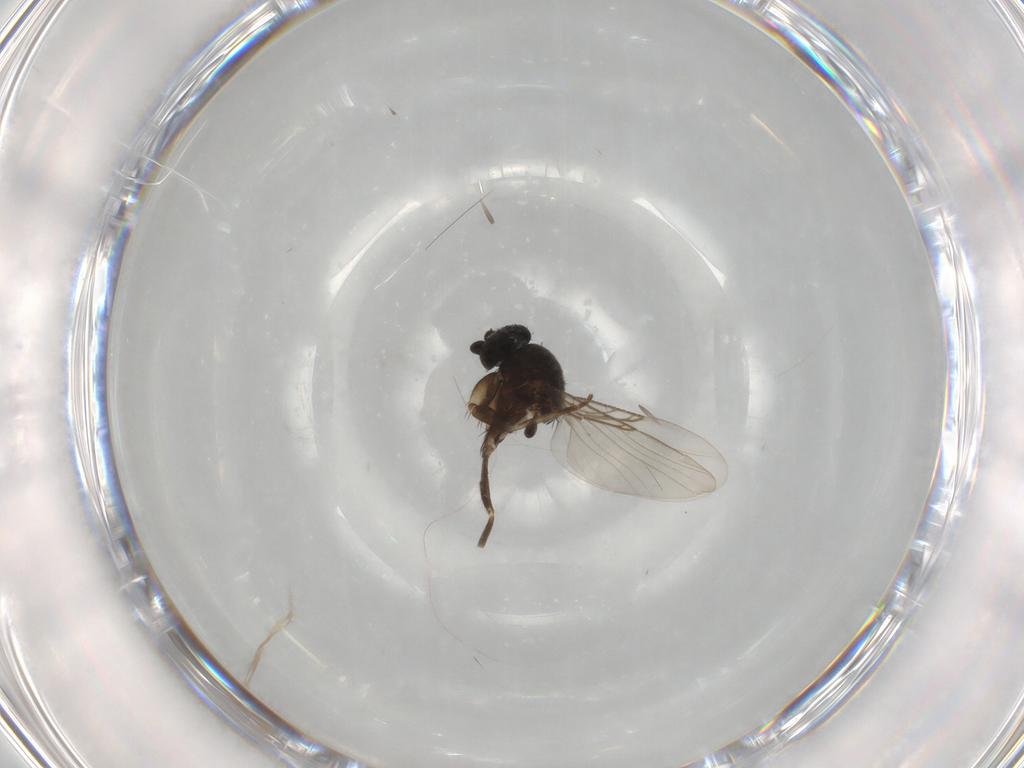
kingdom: Animalia
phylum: Arthropoda
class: Insecta
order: Diptera
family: Asilidae
